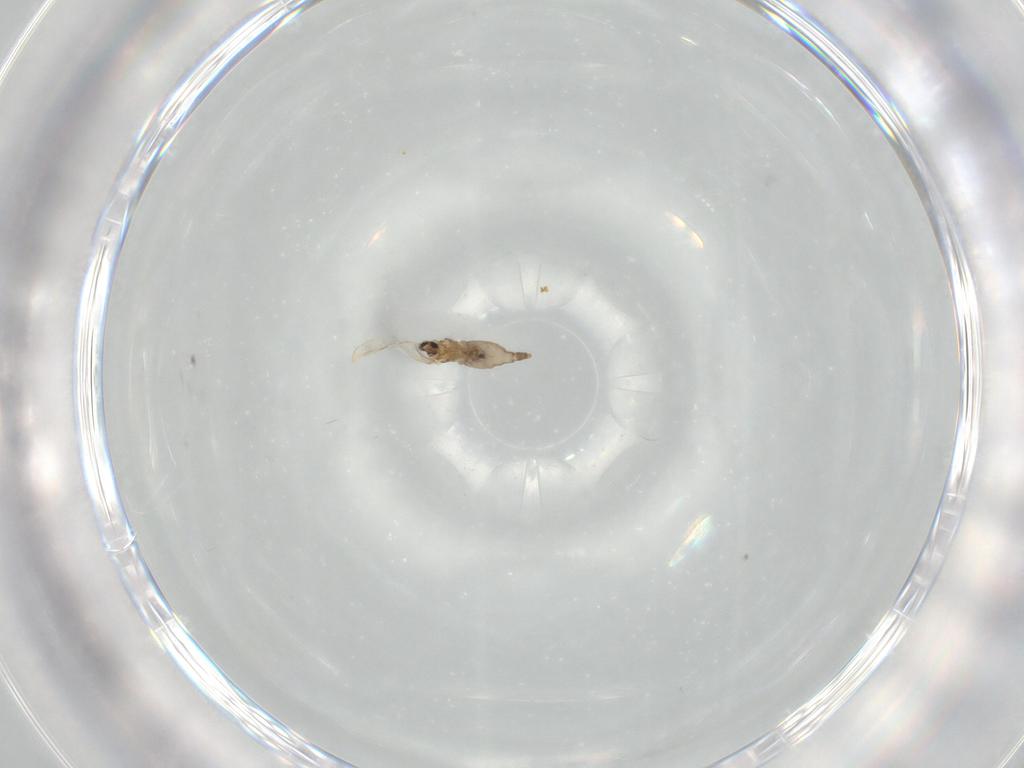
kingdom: Animalia
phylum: Arthropoda
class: Insecta
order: Diptera
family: Cecidomyiidae
